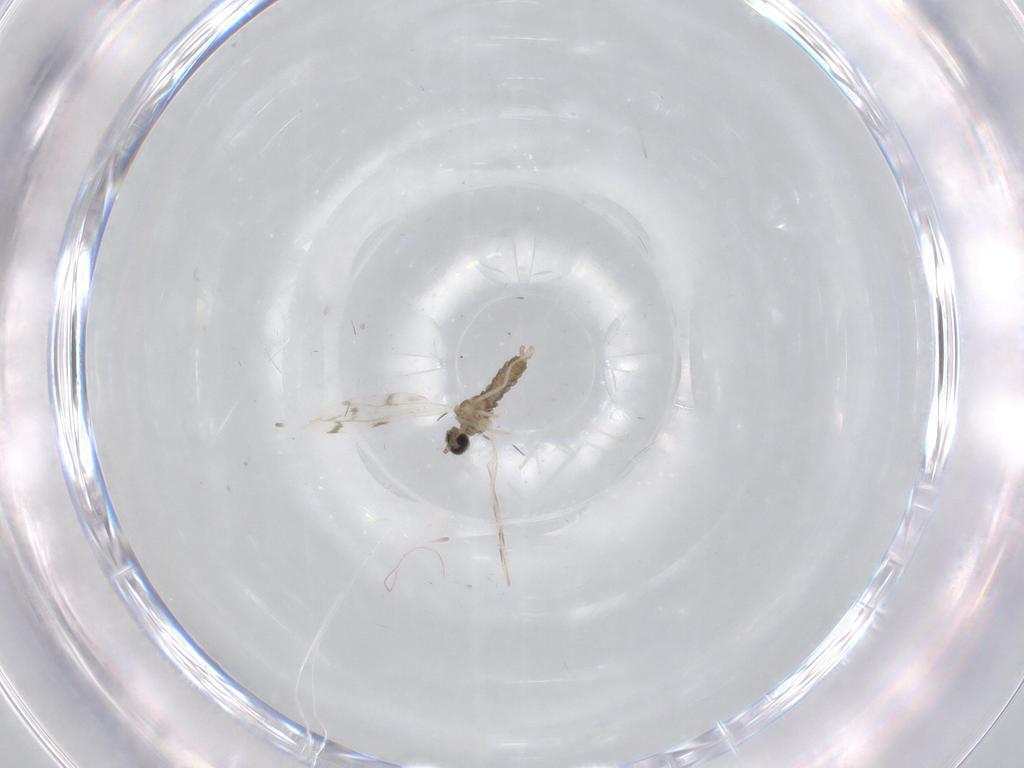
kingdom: Animalia
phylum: Arthropoda
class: Insecta
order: Diptera
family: Cecidomyiidae
